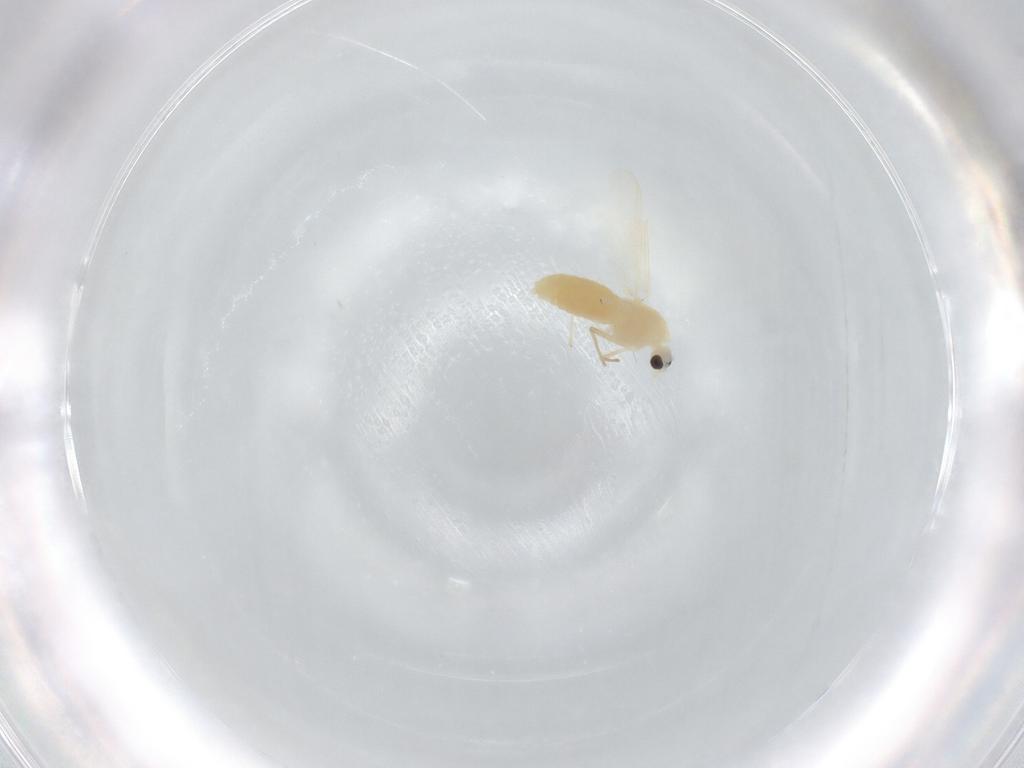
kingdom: Animalia
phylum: Arthropoda
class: Insecta
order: Diptera
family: Chironomidae
